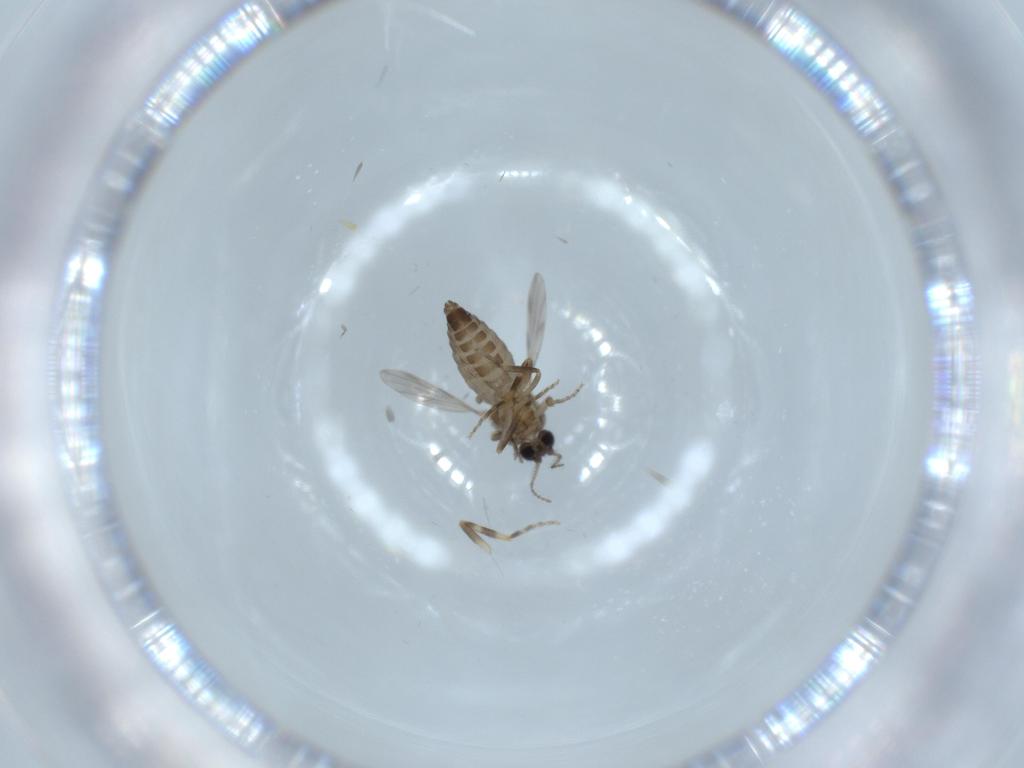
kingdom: Animalia
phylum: Arthropoda
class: Insecta
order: Diptera
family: Ceratopogonidae
